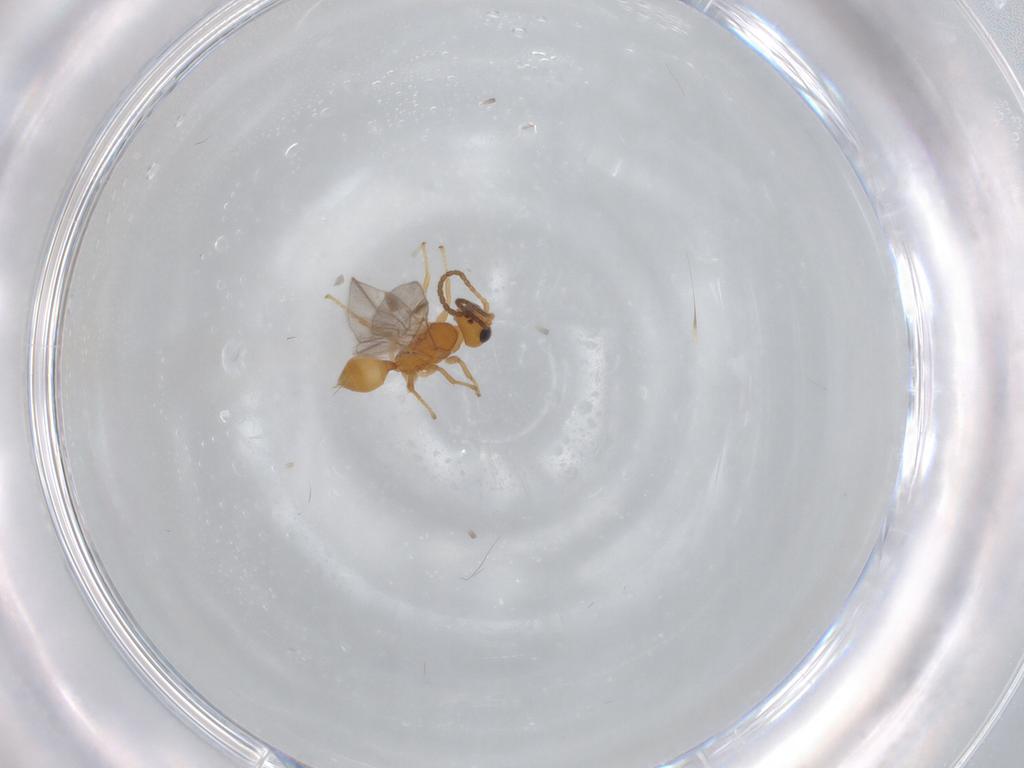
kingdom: Animalia
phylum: Arthropoda
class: Insecta
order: Hymenoptera
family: Braconidae
